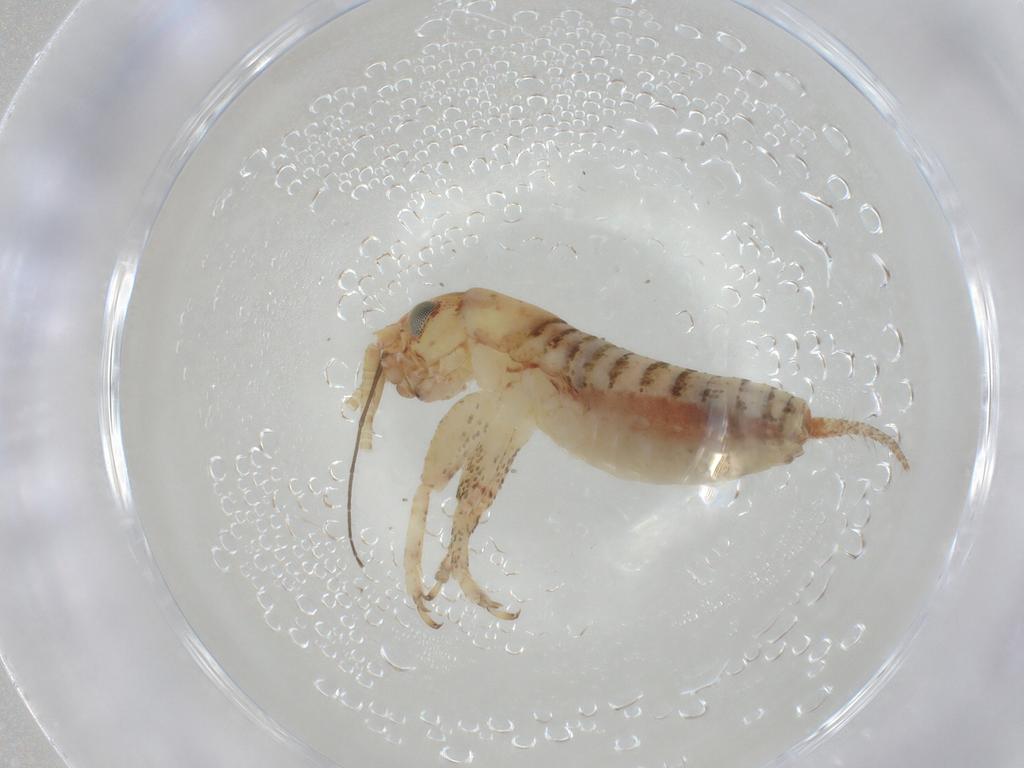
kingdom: Animalia
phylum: Arthropoda
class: Insecta
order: Orthoptera
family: Mogoplistidae
